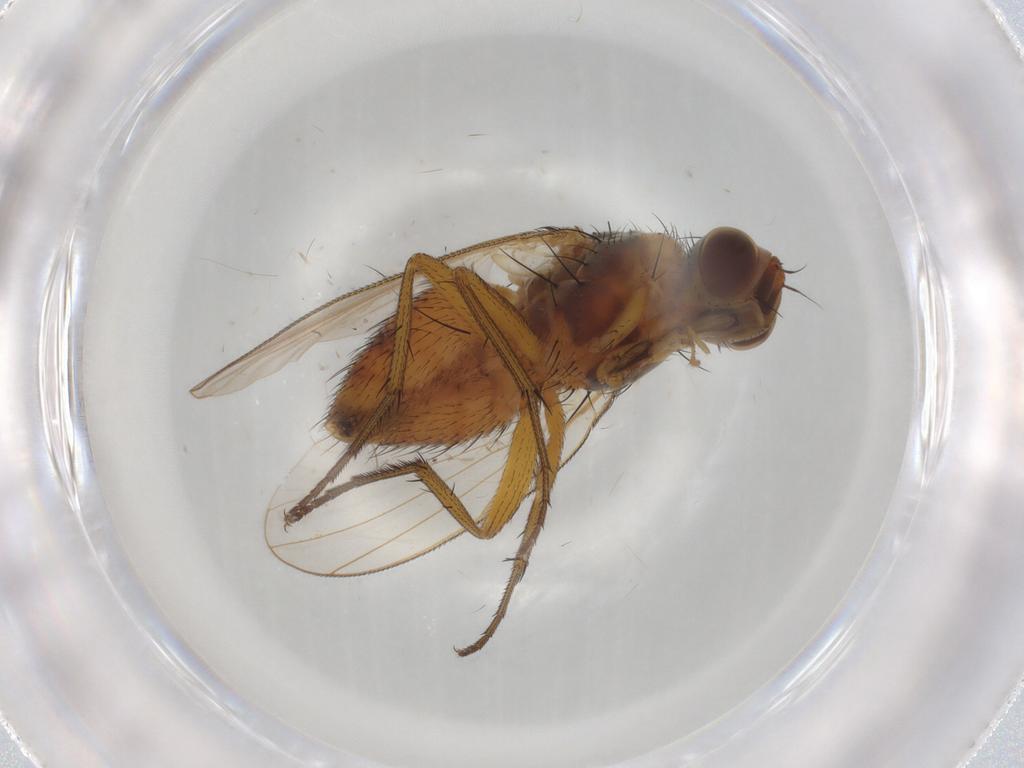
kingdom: Animalia
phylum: Arthropoda
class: Insecta
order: Diptera
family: Muscidae
